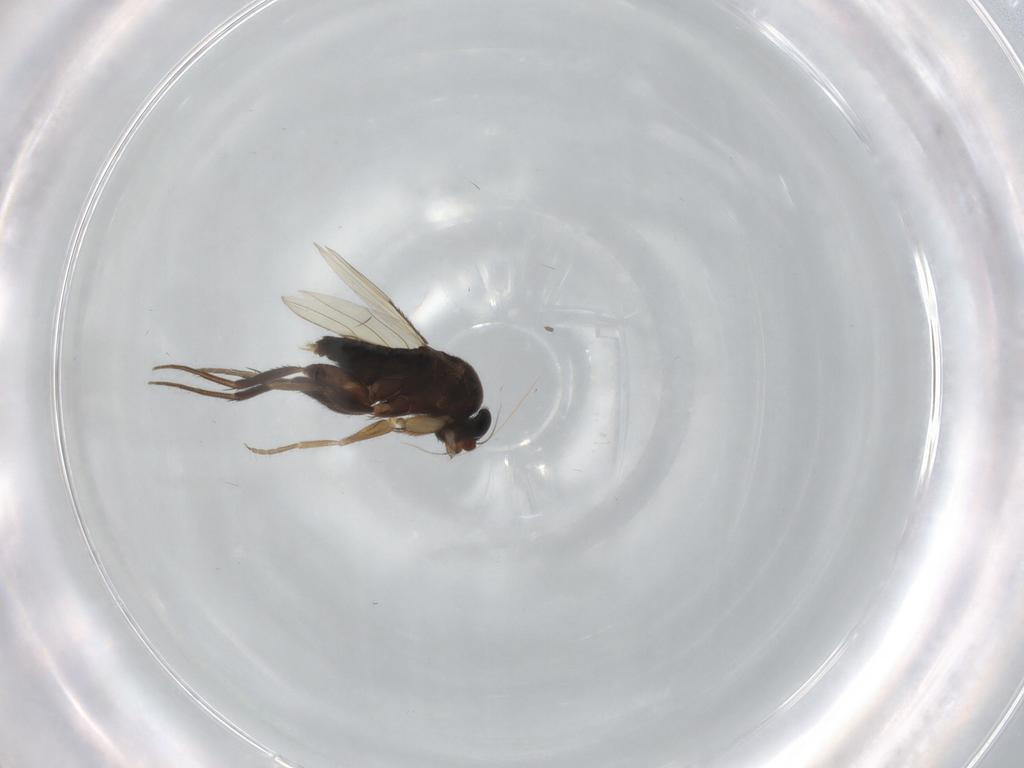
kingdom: Animalia
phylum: Arthropoda
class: Insecta
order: Diptera
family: Phoridae
